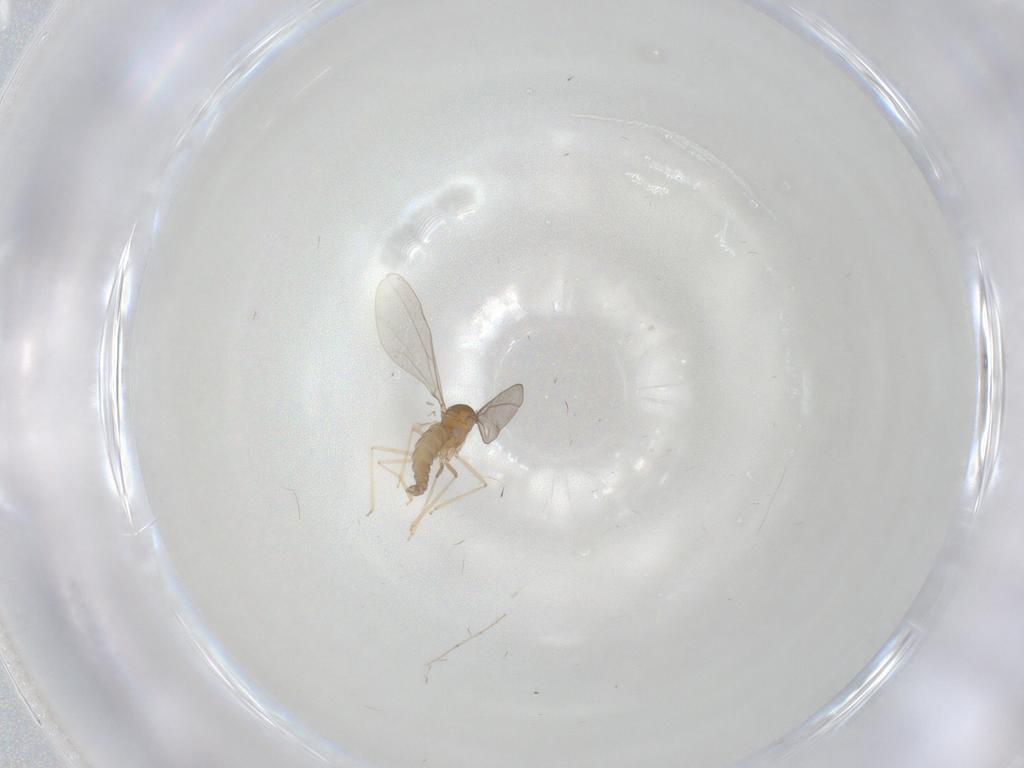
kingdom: Animalia
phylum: Arthropoda
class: Insecta
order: Diptera
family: Cecidomyiidae
